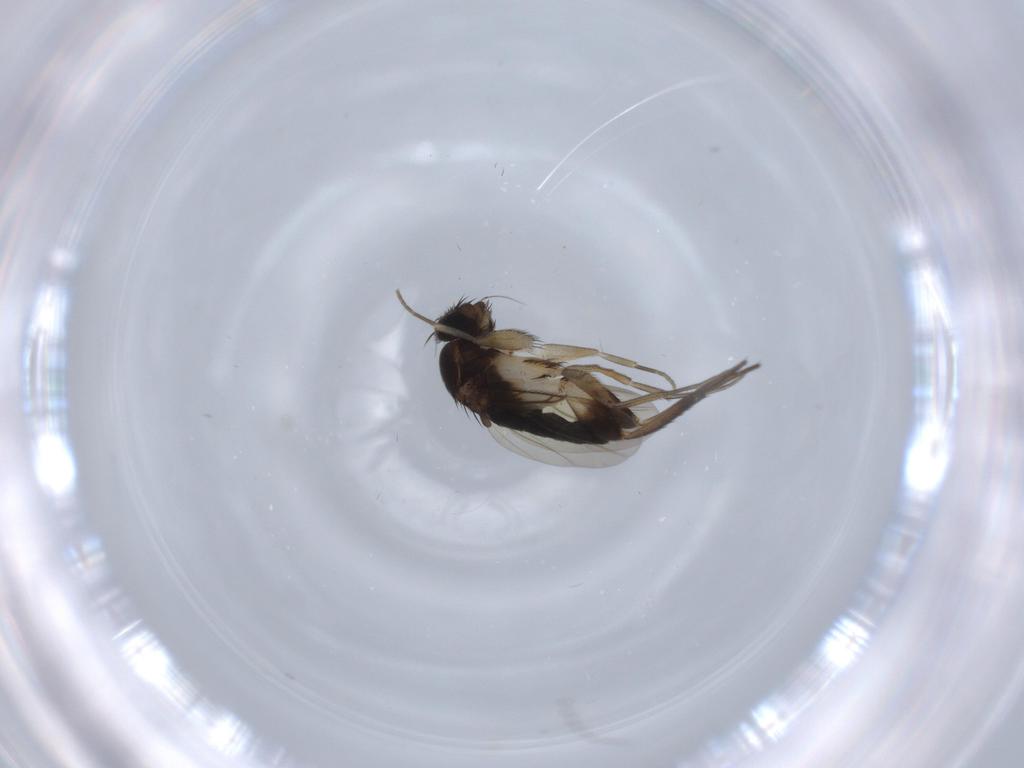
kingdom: Animalia
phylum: Arthropoda
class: Insecta
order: Diptera
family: Phoridae
